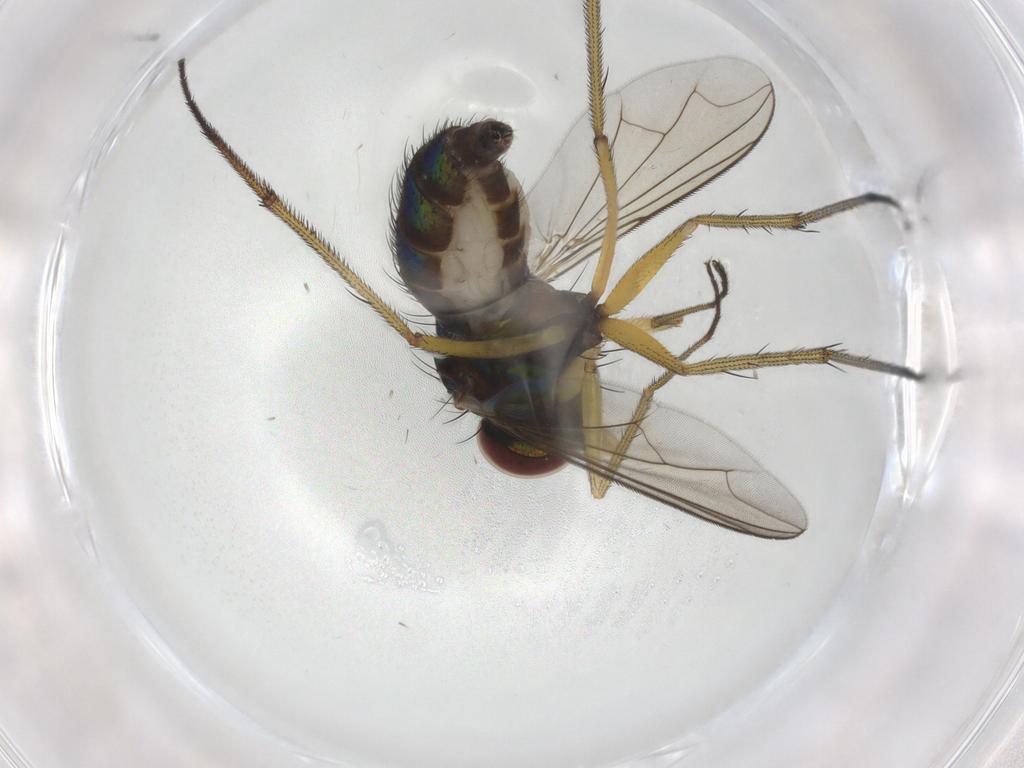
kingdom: Animalia
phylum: Arthropoda
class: Insecta
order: Diptera
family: Dolichopodidae
